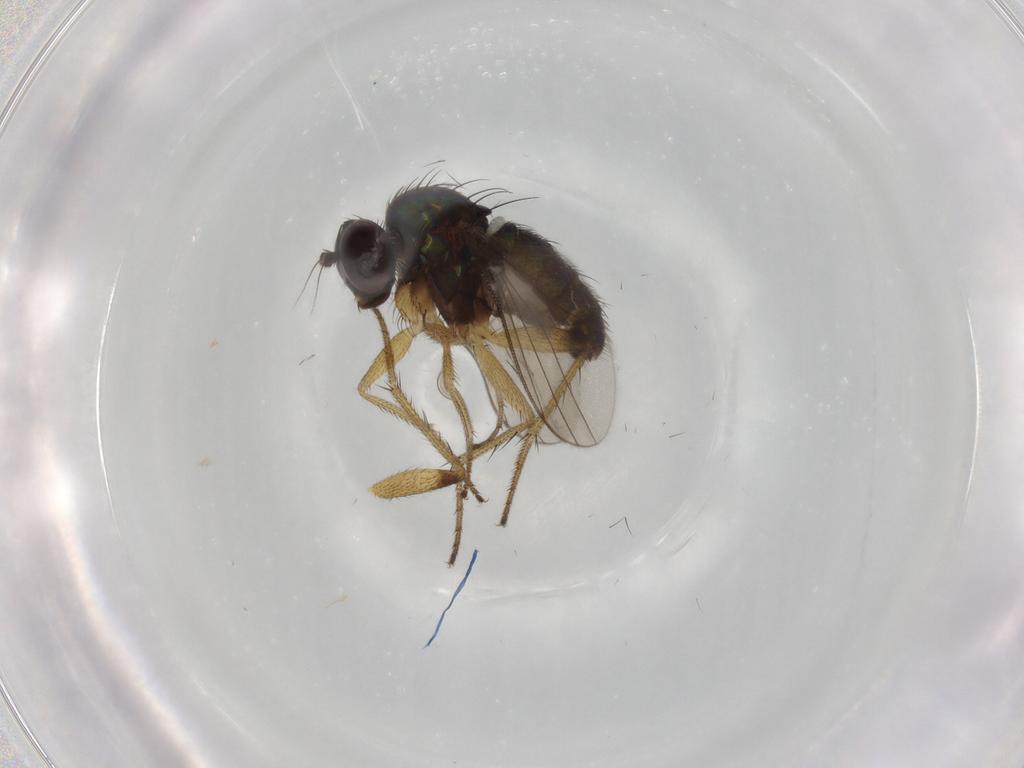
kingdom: Animalia
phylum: Arthropoda
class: Insecta
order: Diptera
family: Dolichopodidae
